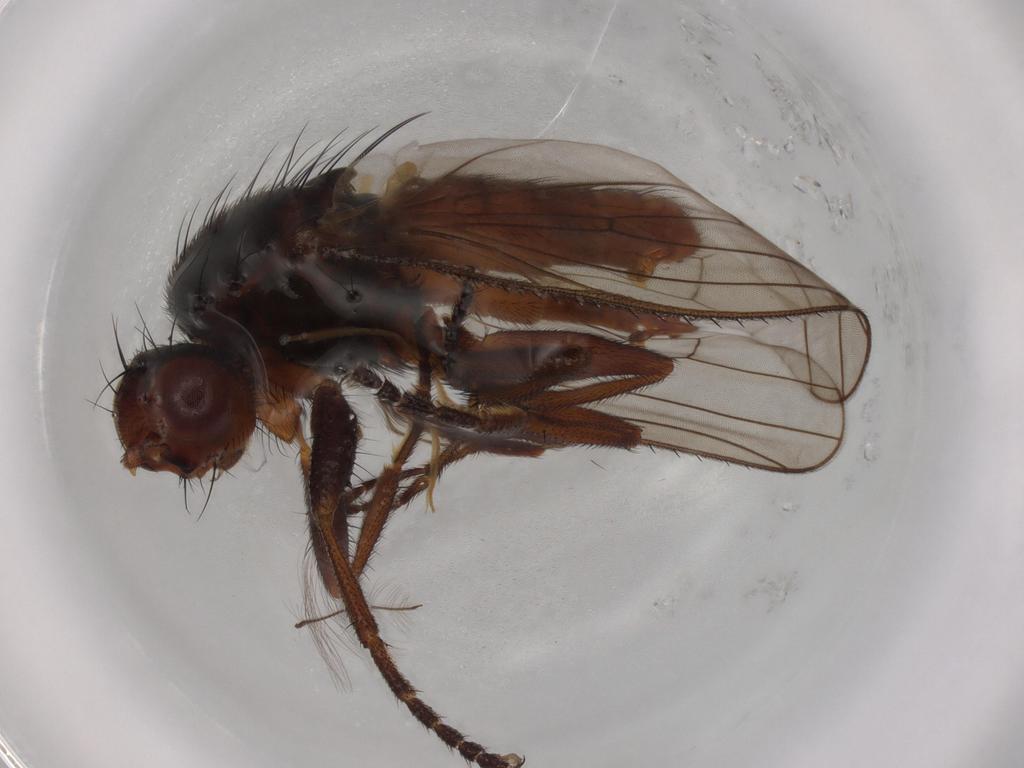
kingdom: Animalia
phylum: Arthropoda
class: Insecta
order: Diptera
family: Heleomyzidae
